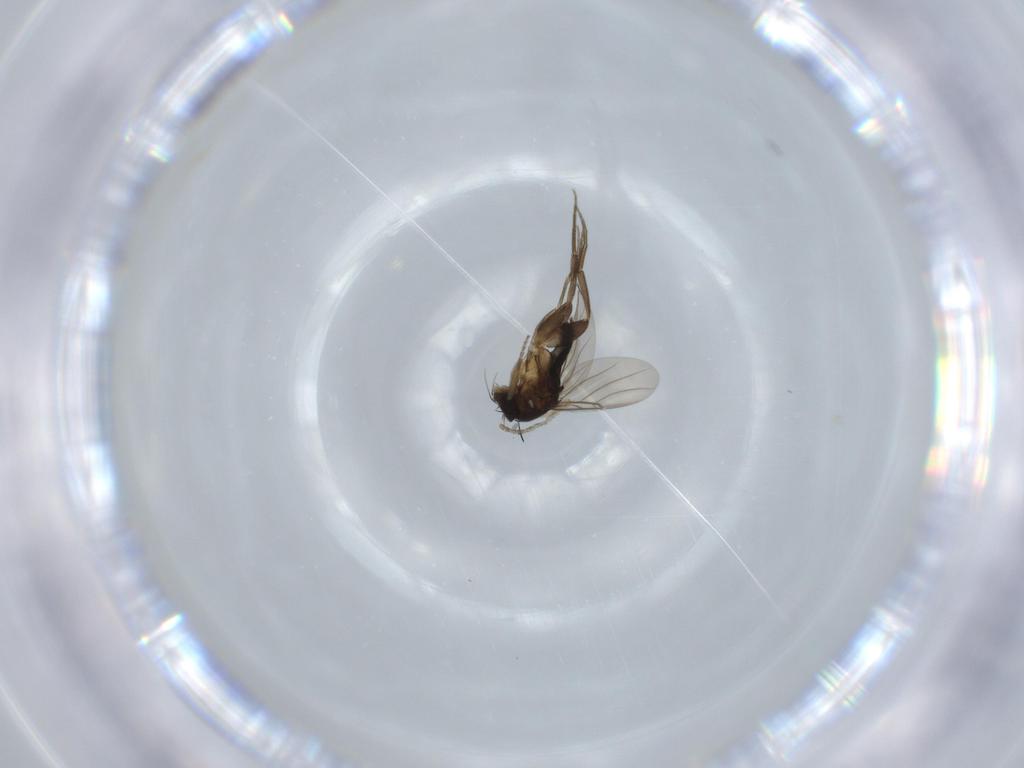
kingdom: Animalia
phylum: Arthropoda
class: Insecta
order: Diptera
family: Phoridae
